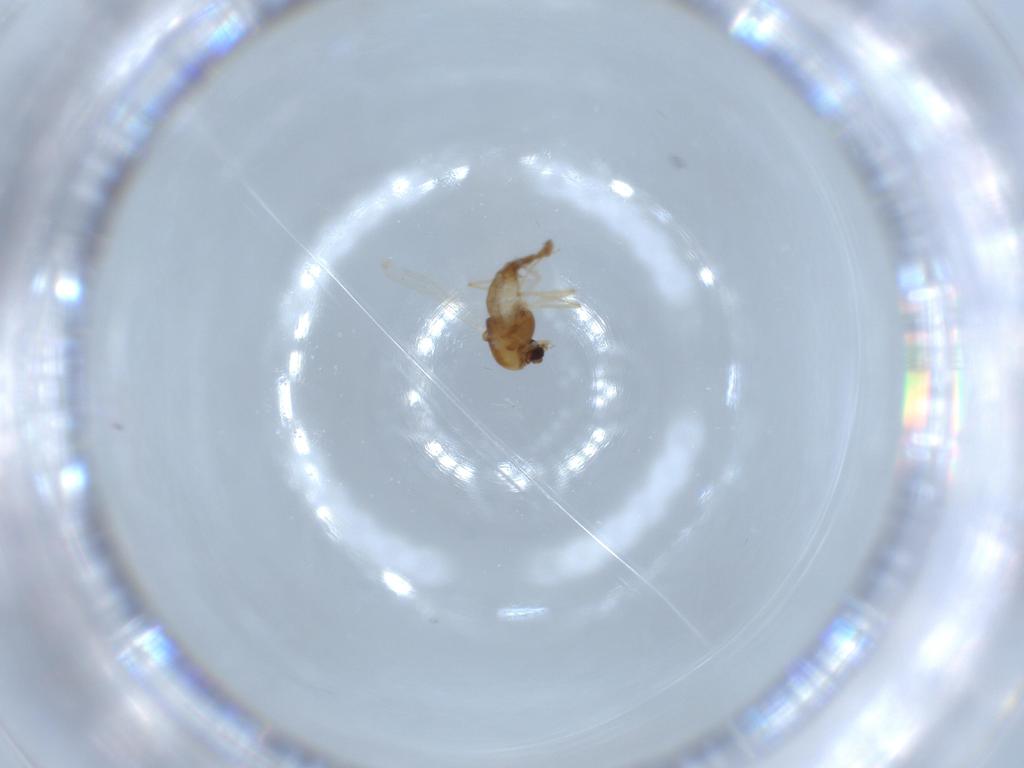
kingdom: Animalia
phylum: Arthropoda
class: Insecta
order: Diptera
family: Chironomidae
